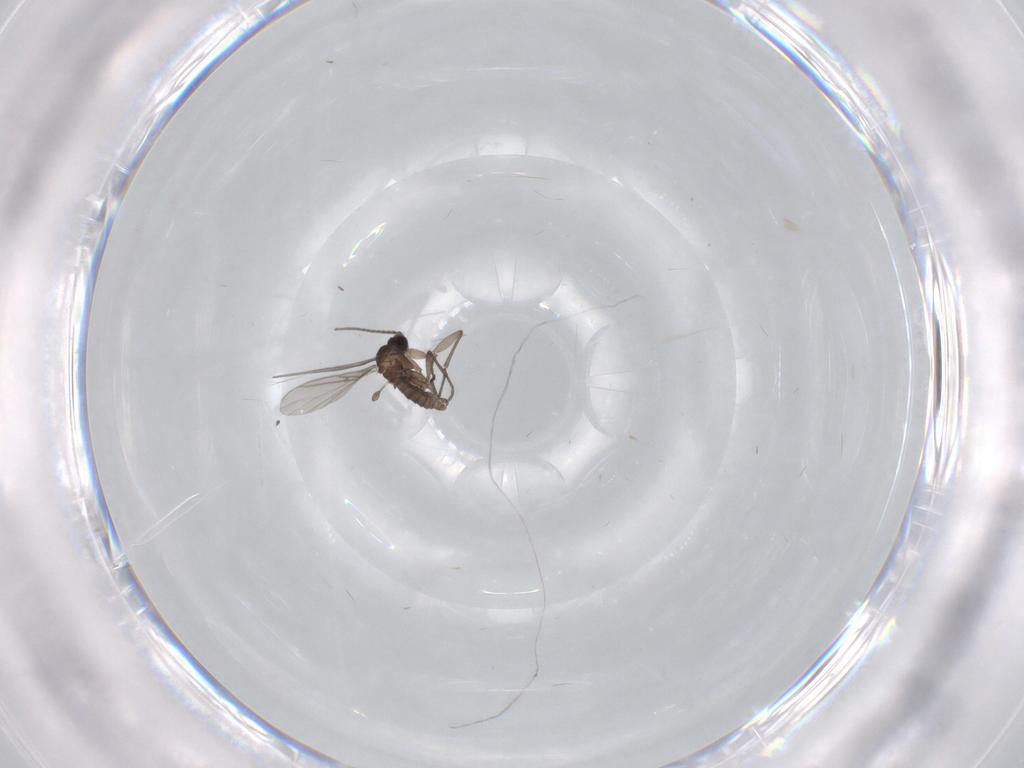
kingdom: Animalia
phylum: Arthropoda
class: Insecta
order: Diptera
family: Sciaridae
